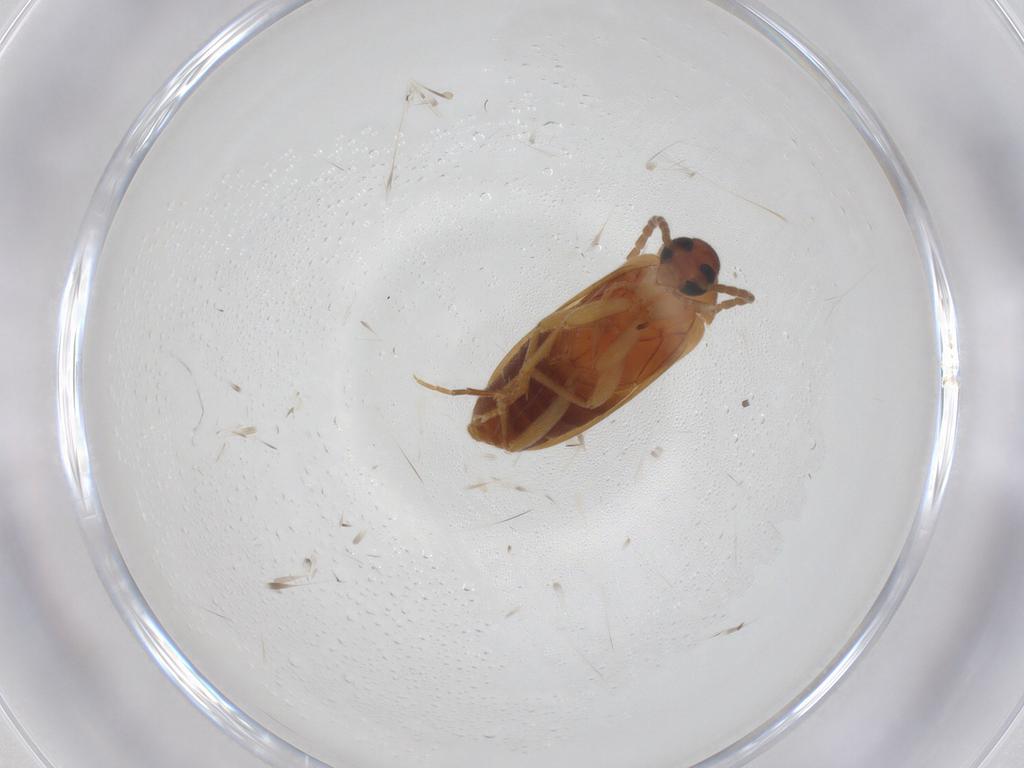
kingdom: Animalia
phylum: Arthropoda
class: Insecta
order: Coleoptera
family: Scraptiidae
